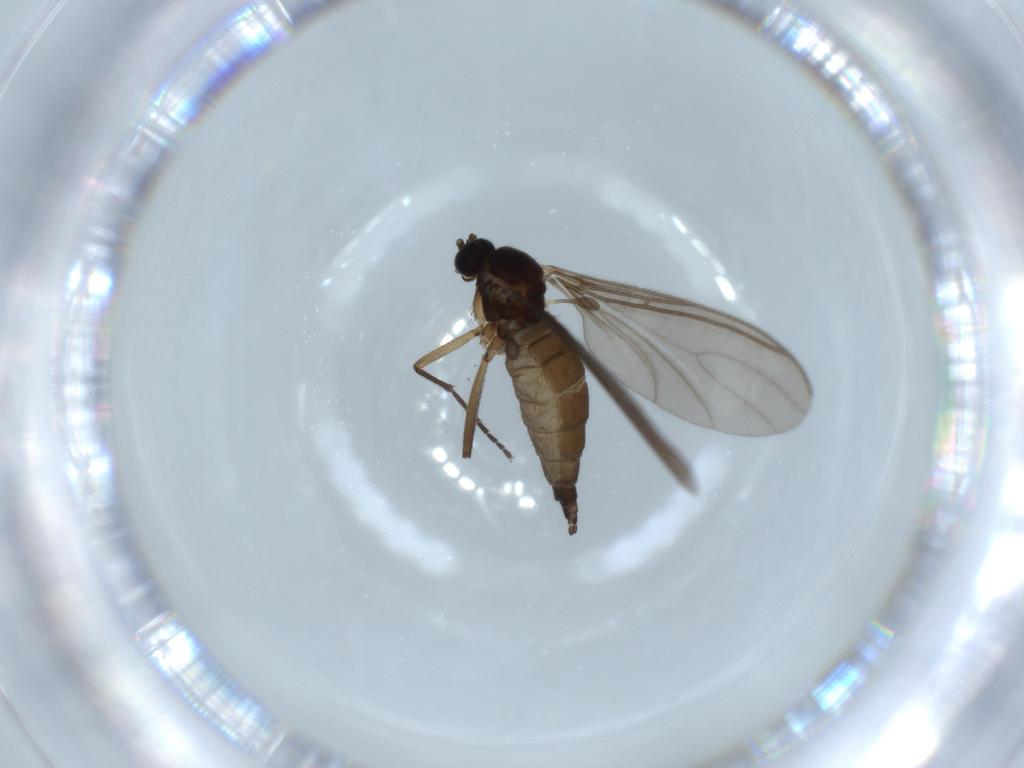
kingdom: Animalia
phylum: Arthropoda
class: Insecta
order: Diptera
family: Sciaridae
